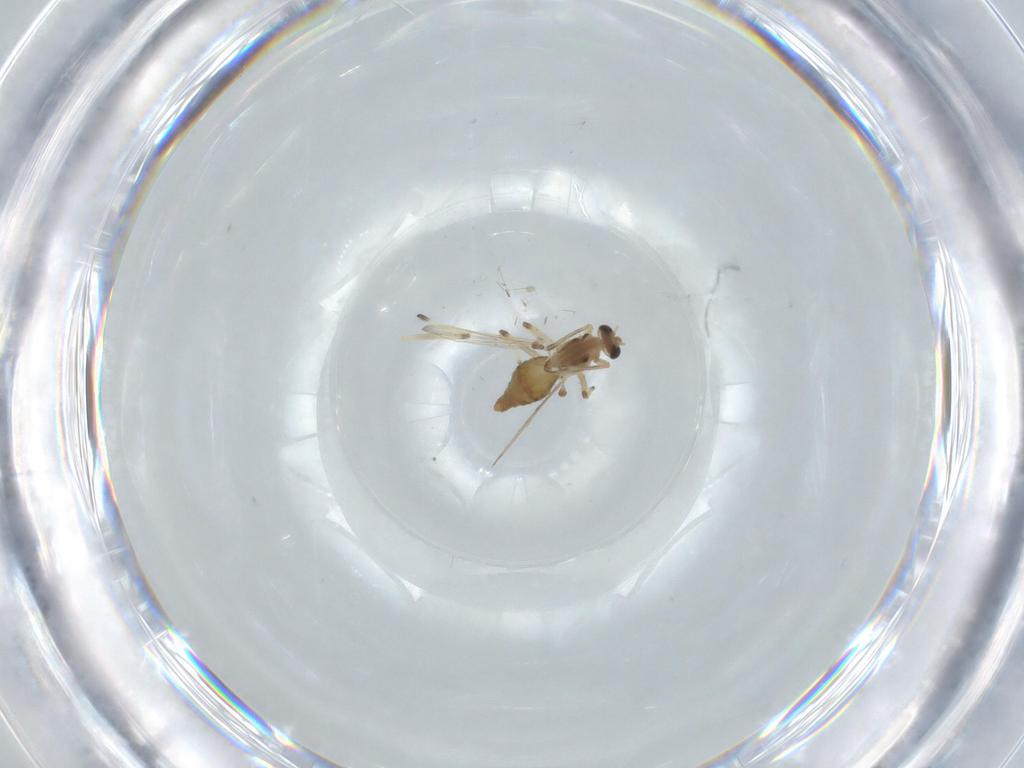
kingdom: Animalia
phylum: Arthropoda
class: Insecta
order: Diptera
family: Chironomidae
